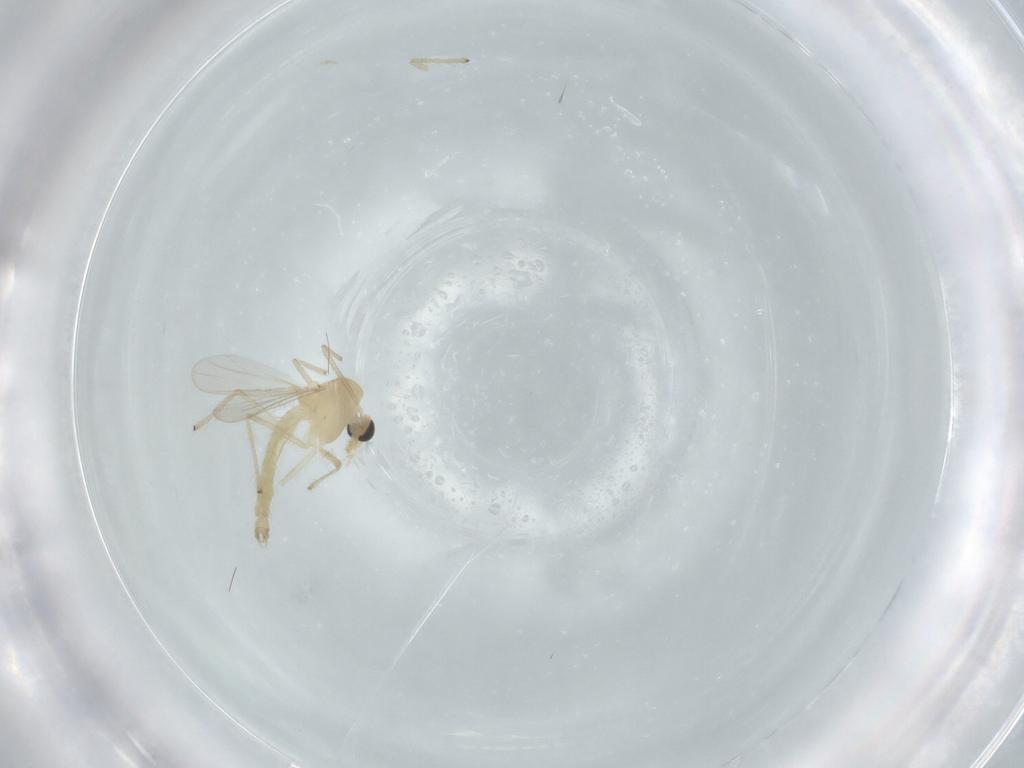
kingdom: Animalia
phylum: Arthropoda
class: Insecta
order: Diptera
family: Chironomidae
